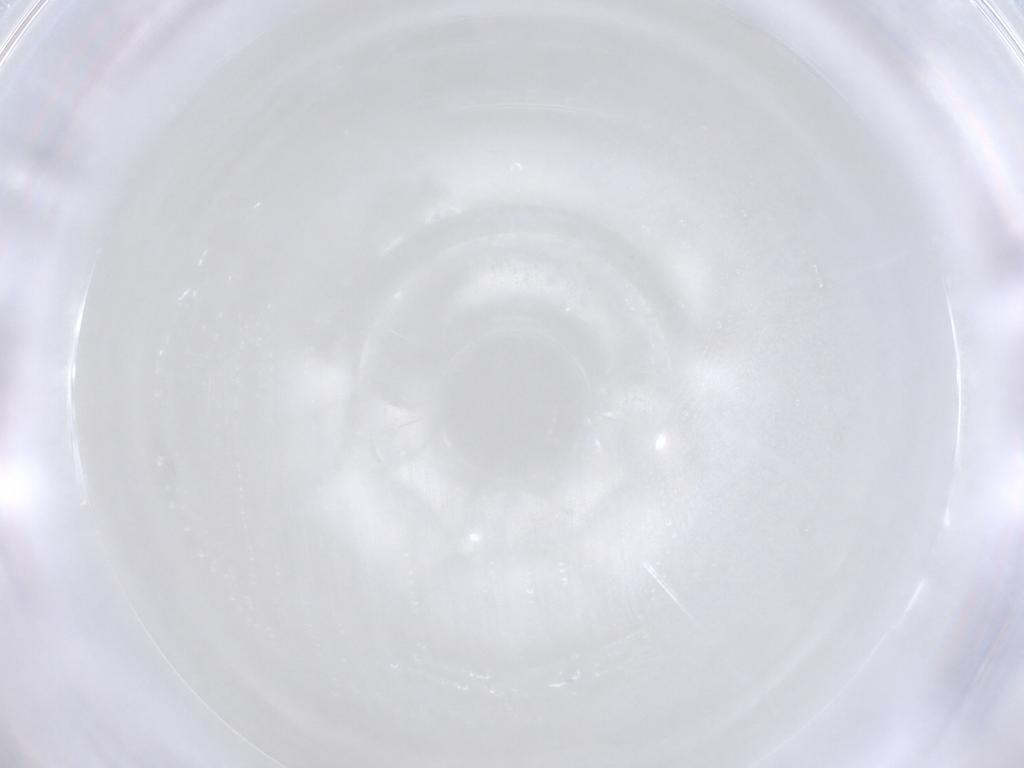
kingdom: Animalia
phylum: Arthropoda
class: Insecta
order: Hymenoptera
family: Scelionidae
